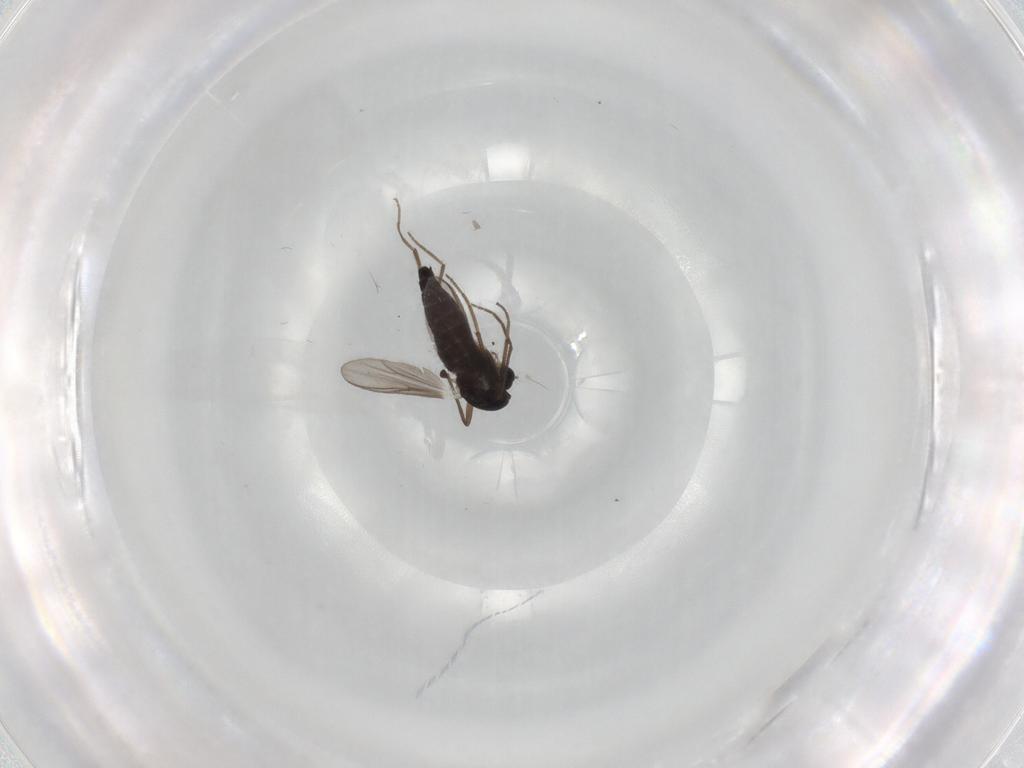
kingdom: Animalia
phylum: Arthropoda
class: Insecta
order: Diptera
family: Chironomidae
